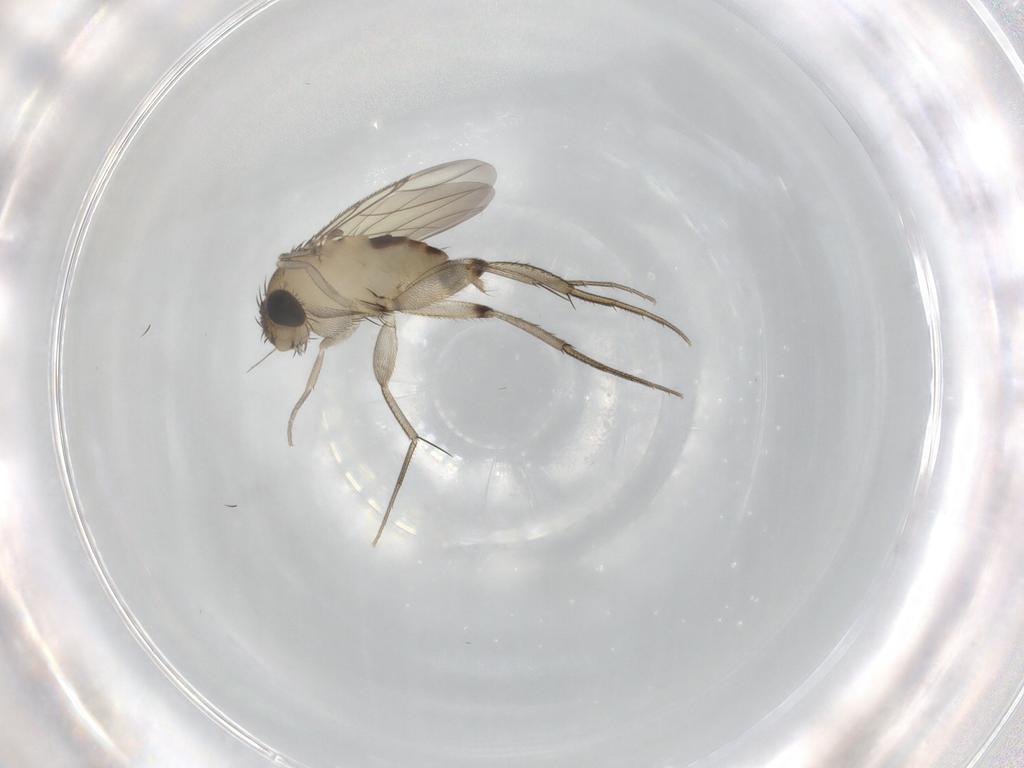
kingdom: Animalia
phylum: Arthropoda
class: Insecta
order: Diptera
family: Phoridae
